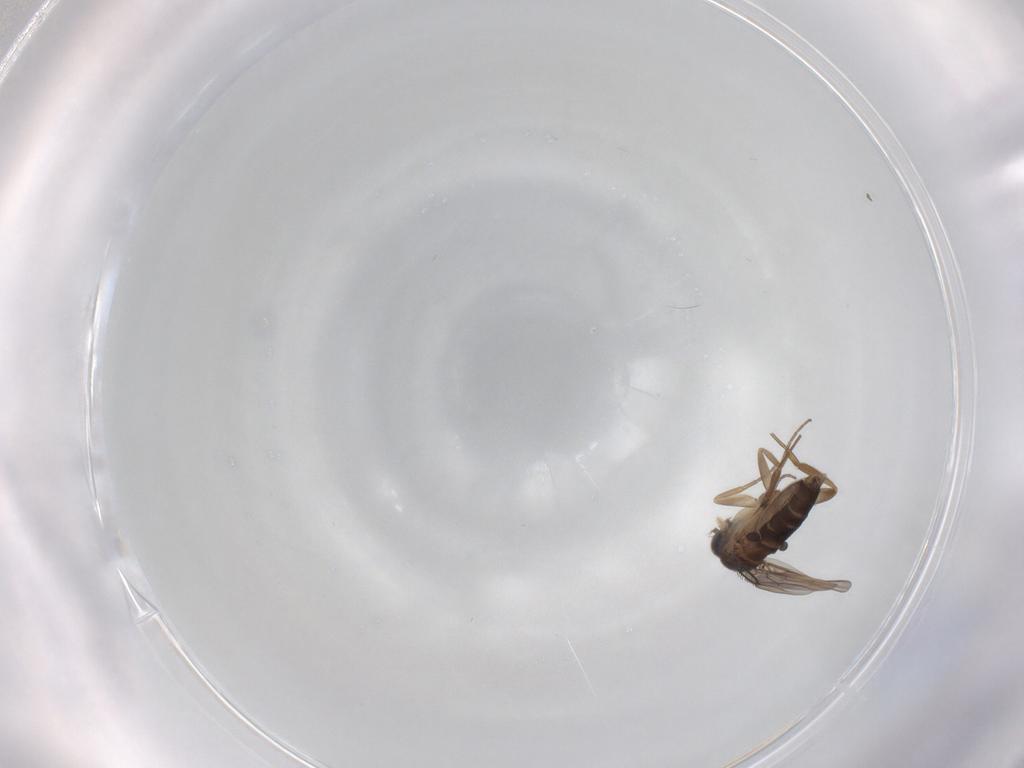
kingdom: Animalia
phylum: Arthropoda
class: Insecta
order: Diptera
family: Phoridae
